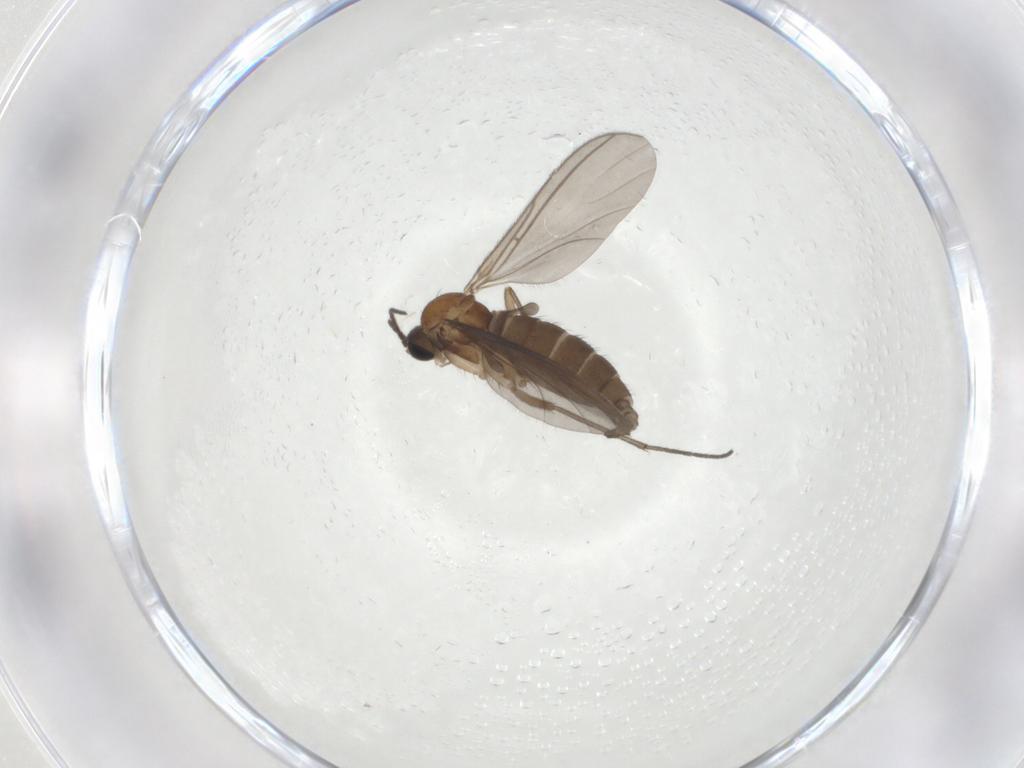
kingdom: Animalia
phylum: Arthropoda
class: Insecta
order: Diptera
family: Sciaridae
